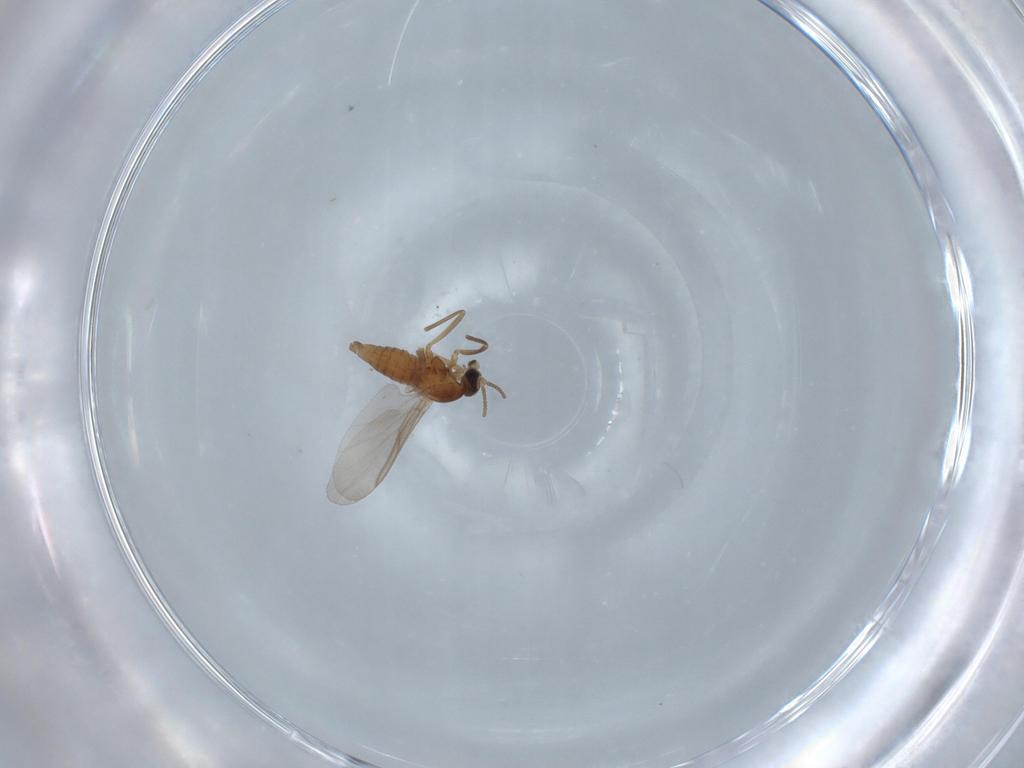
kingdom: Animalia
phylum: Arthropoda
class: Insecta
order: Diptera
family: Cecidomyiidae
